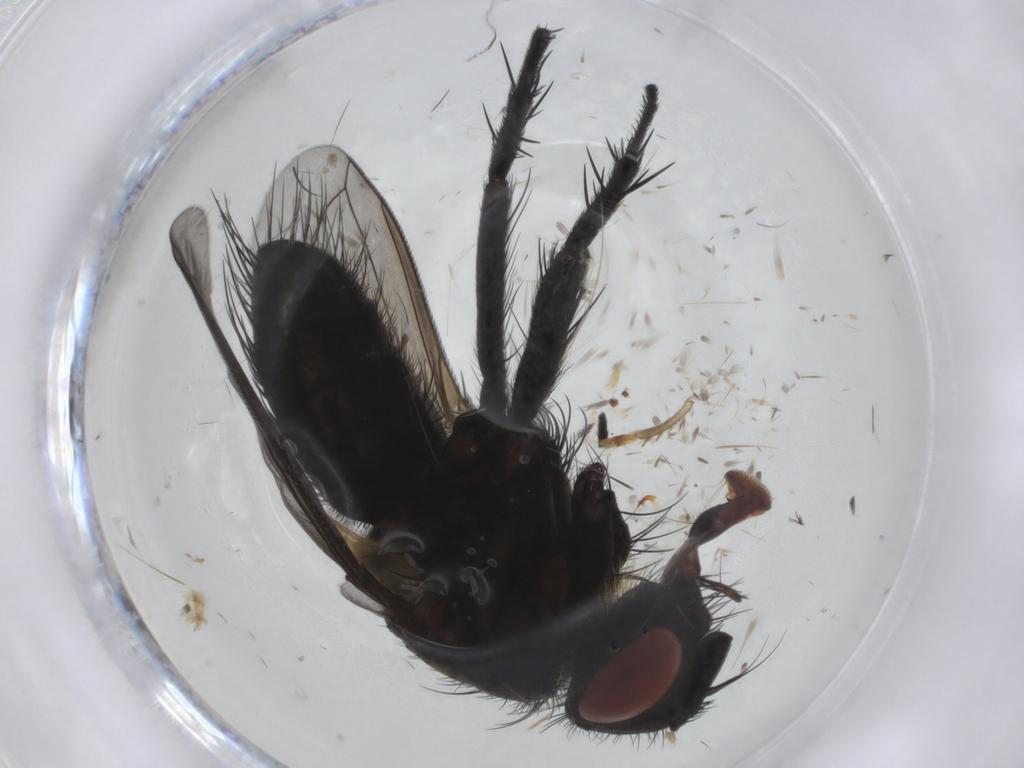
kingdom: Animalia
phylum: Arthropoda
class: Insecta
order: Diptera
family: Tachinidae
